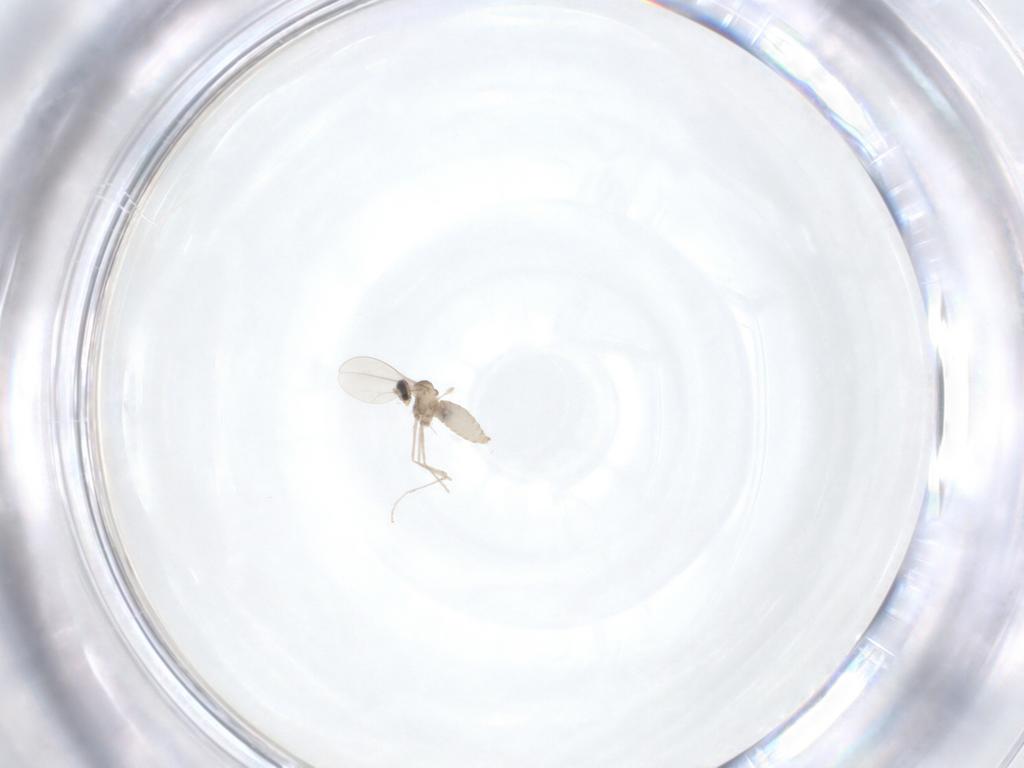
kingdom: Animalia
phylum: Arthropoda
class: Insecta
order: Diptera
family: Cecidomyiidae
